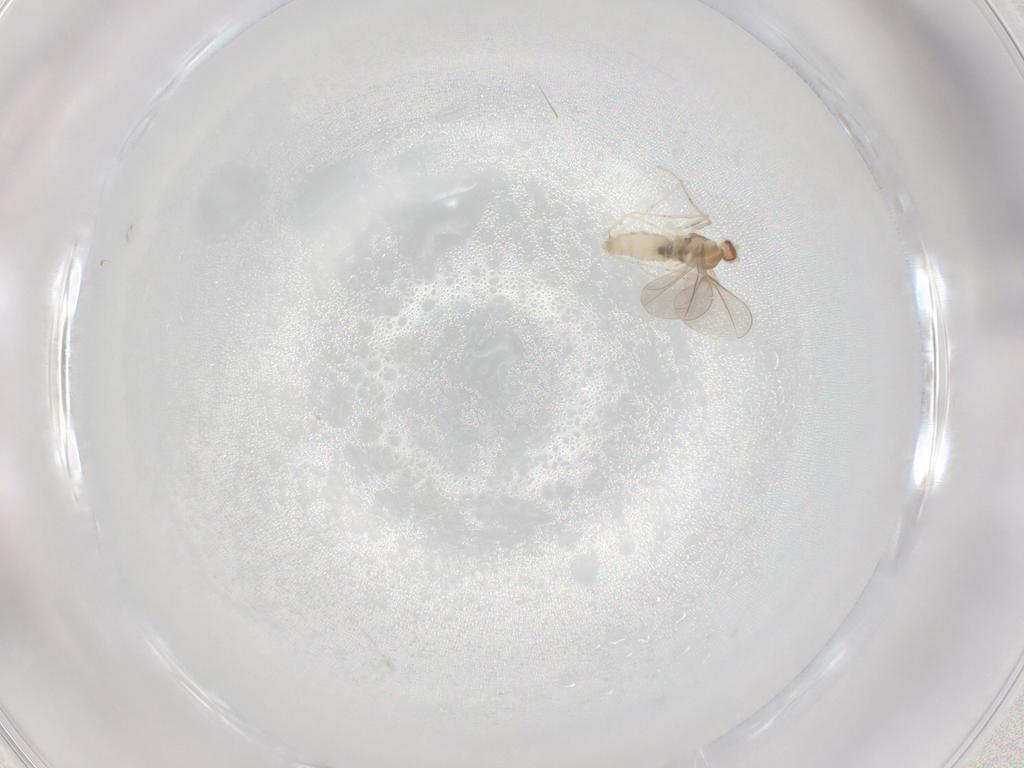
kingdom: Animalia
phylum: Arthropoda
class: Insecta
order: Diptera
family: Cecidomyiidae
